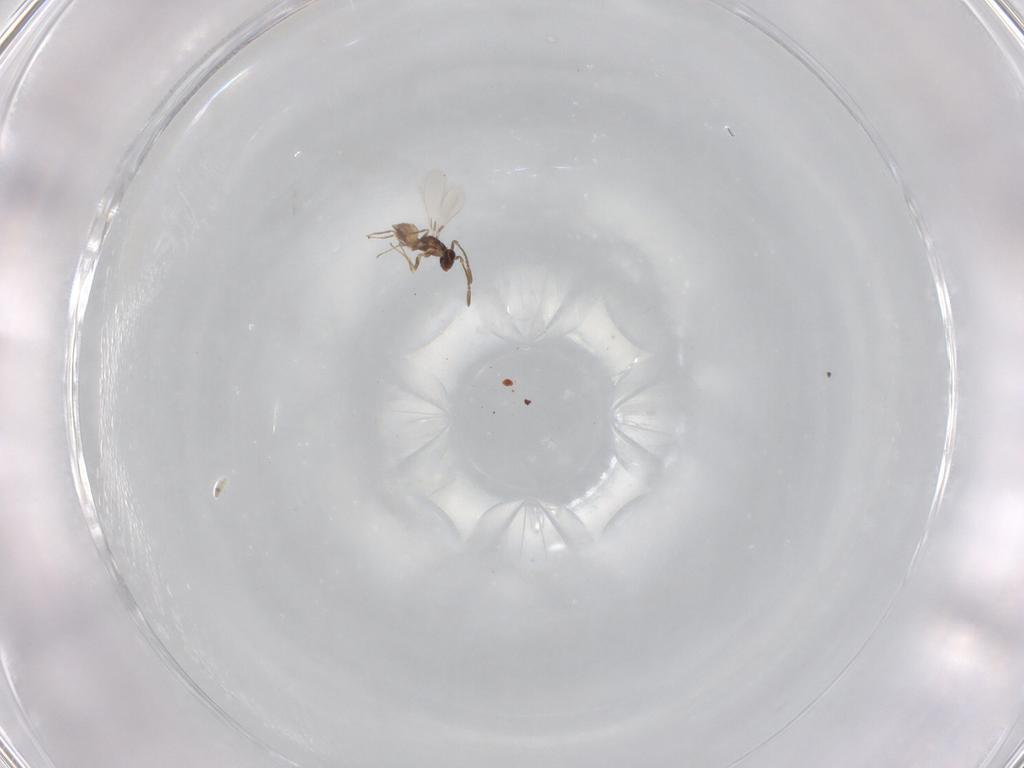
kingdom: Animalia
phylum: Arthropoda
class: Insecta
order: Hymenoptera
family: Mymaridae
